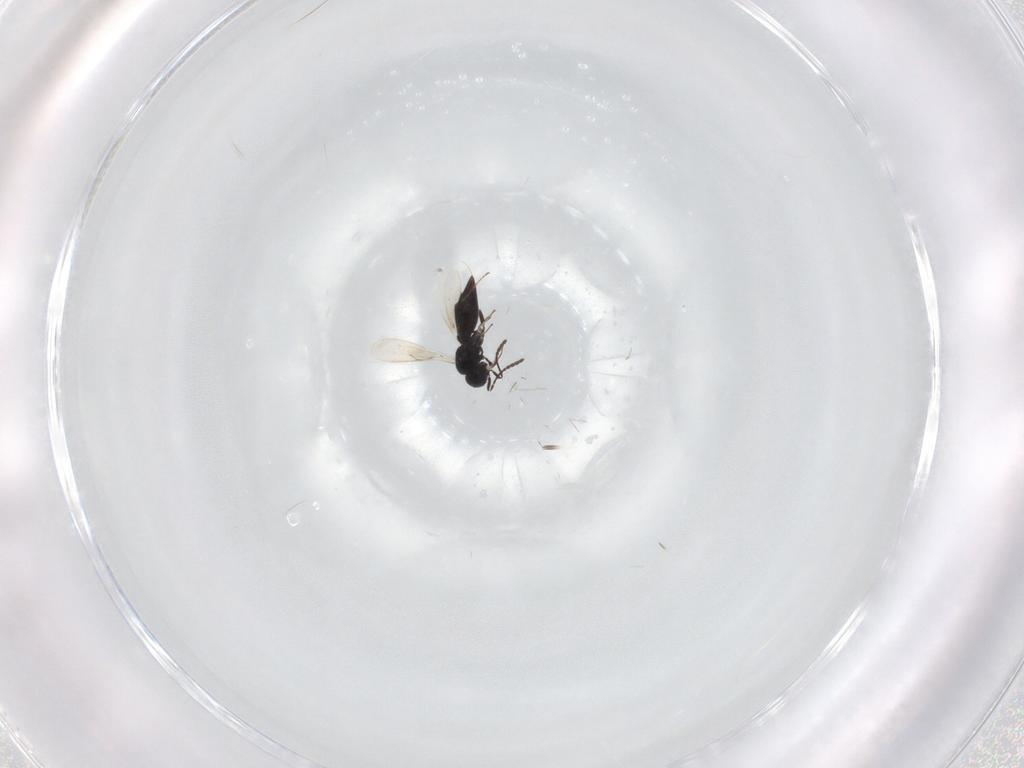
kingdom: Animalia
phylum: Arthropoda
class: Insecta
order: Hymenoptera
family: Scelionidae
